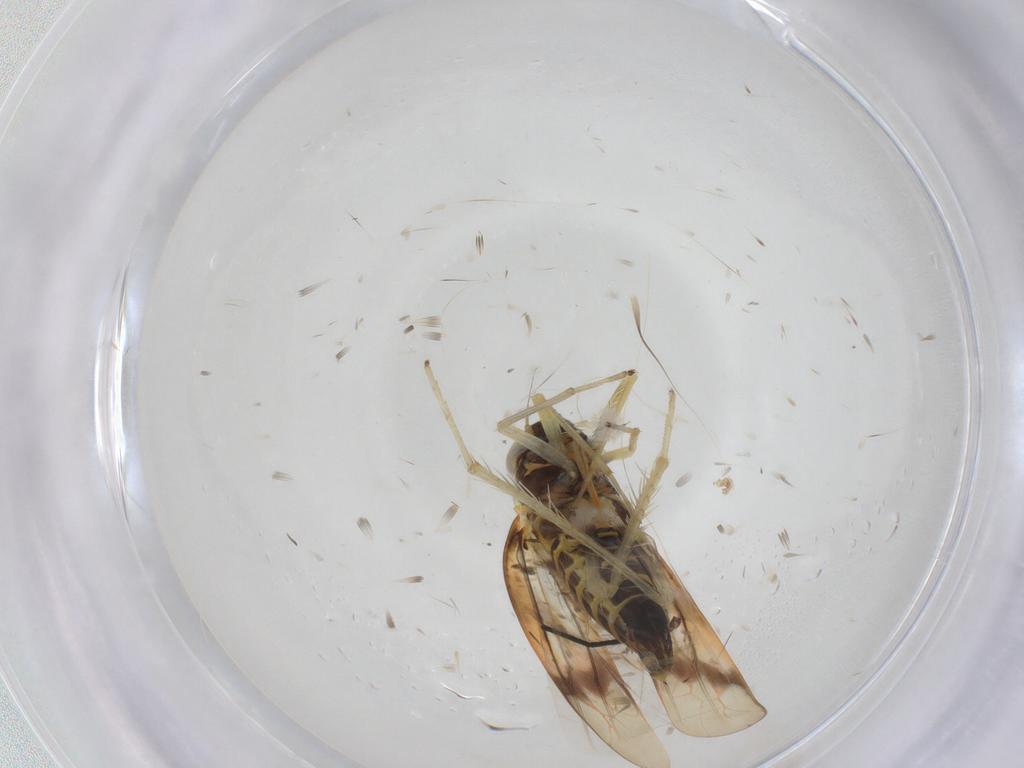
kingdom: Animalia
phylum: Arthropoda
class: Insecta
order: Hemiptera
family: Cicadellidae
